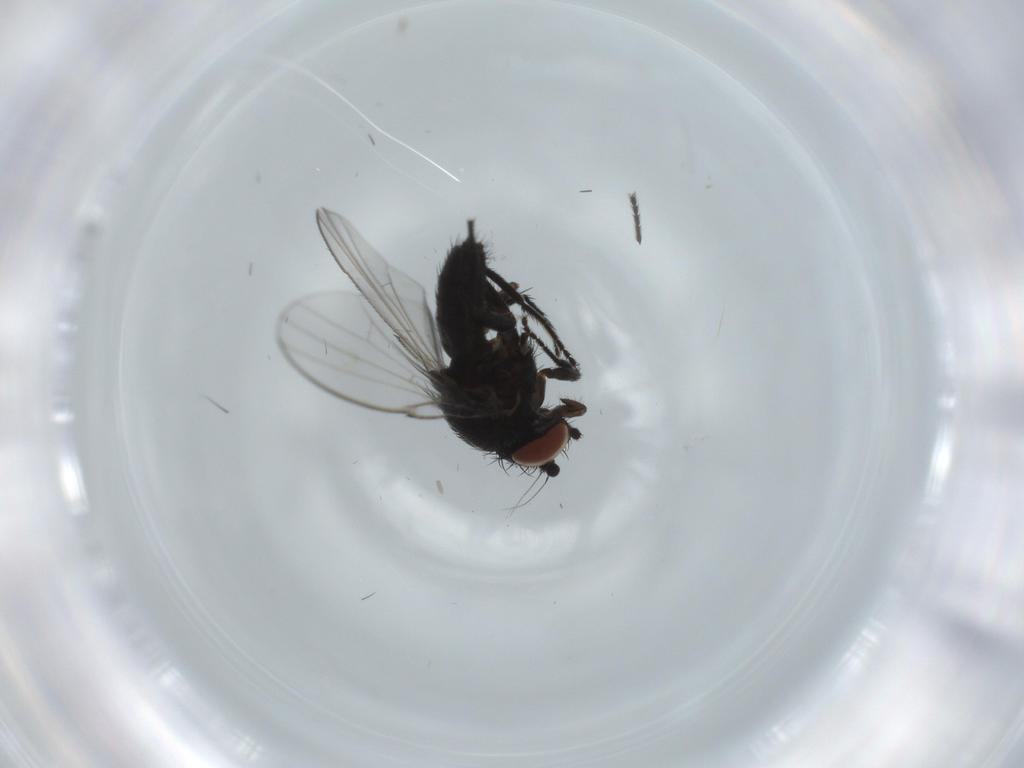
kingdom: Animalia
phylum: Arthropoda
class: Insecta
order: Diptera
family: Milichiidae
